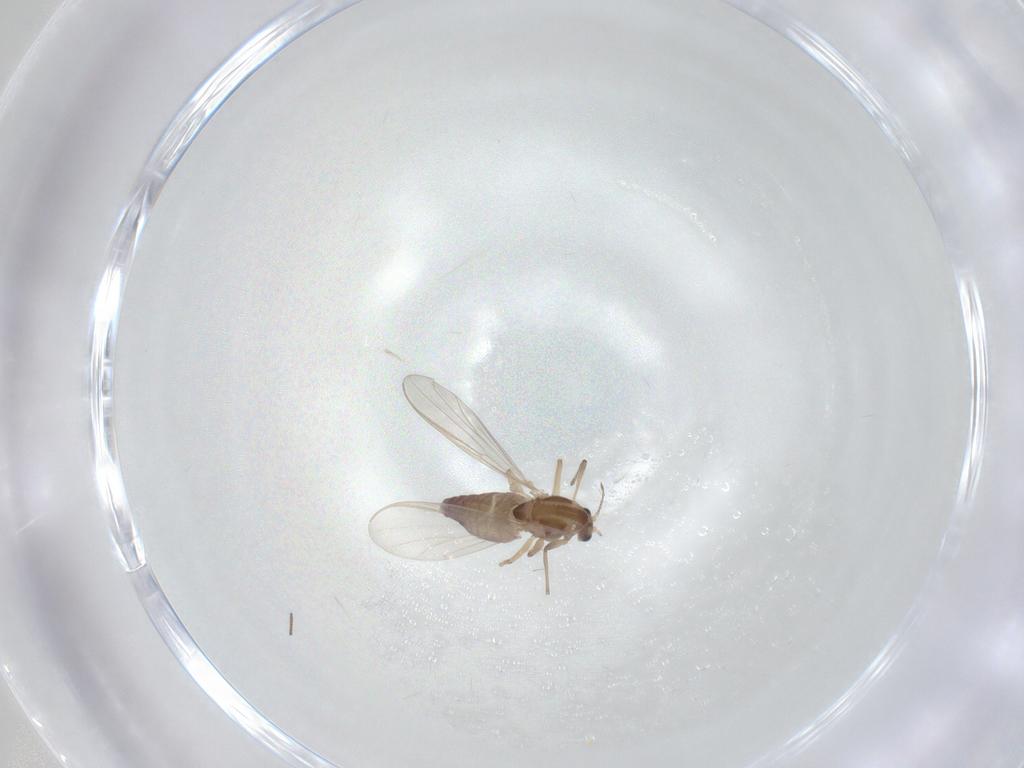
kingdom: Animalia
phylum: Arthropoda
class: Insecta
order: Diptera
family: Chironomidae
